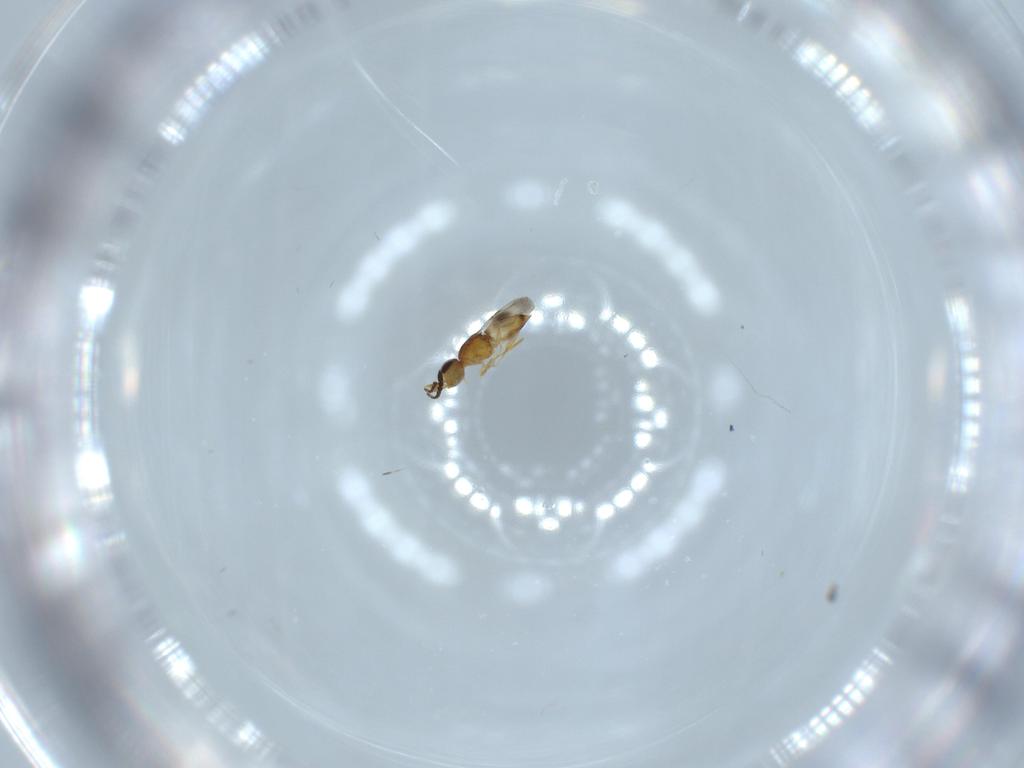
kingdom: Animalia
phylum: Arthropoda
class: Insecta
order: Hymenoptera
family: Ceraphronidae
